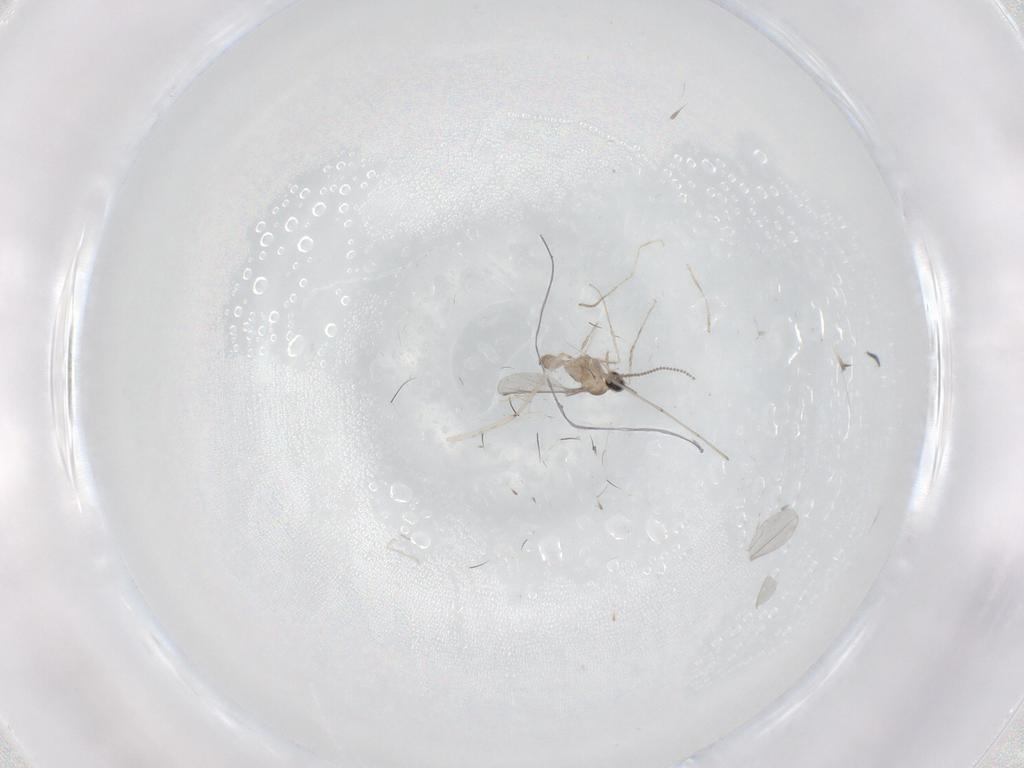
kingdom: Animalia
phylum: Arthropoda
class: Insecta
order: Diptera
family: Cecidomyiidae
